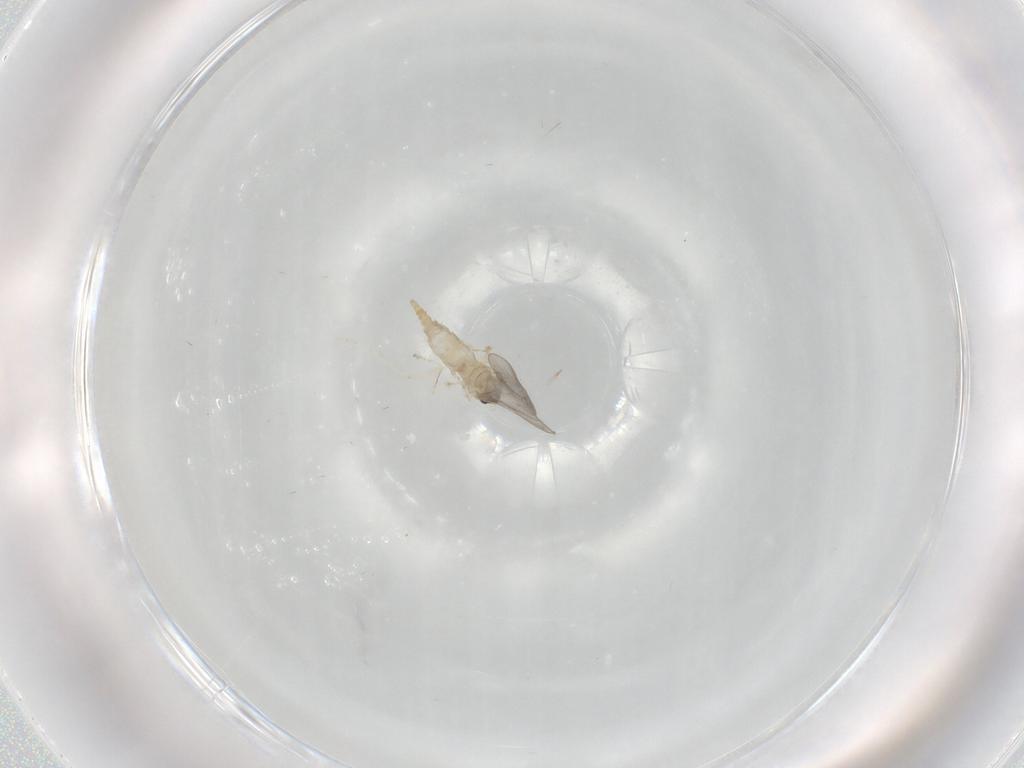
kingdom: Animalia
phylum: Arthropoda
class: Insecta
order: Diptera
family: Cecidomyiidae
